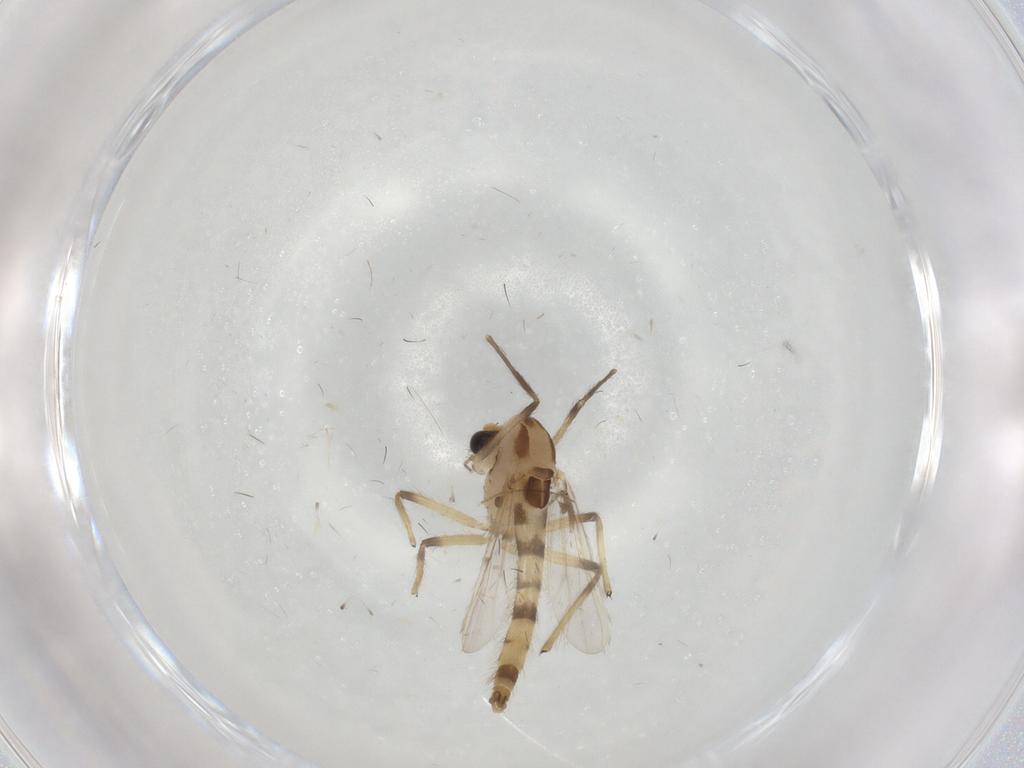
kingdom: Animalia
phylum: Arthropoda
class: Insecta
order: Diptera
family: Chironomidae
